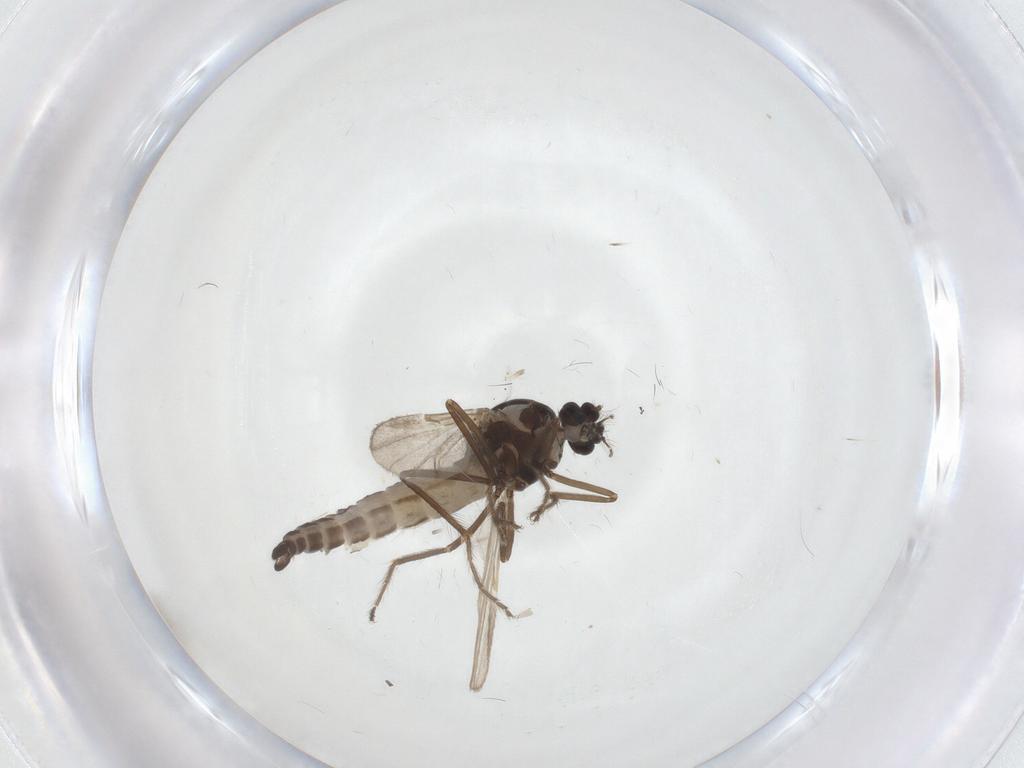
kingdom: Animalia
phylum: Arthropoda
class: Insecta
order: Diptera
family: Ceratopogonidae
